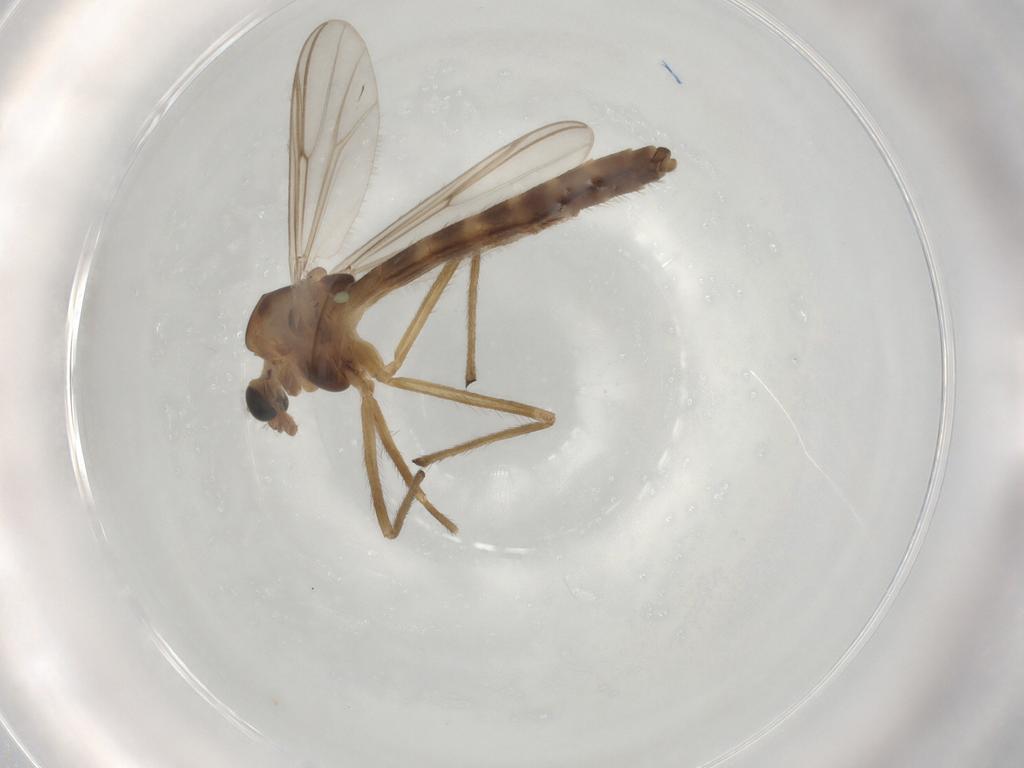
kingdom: Animalia
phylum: Arthropoda
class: Insecta
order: Diptera
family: Chironomidae
